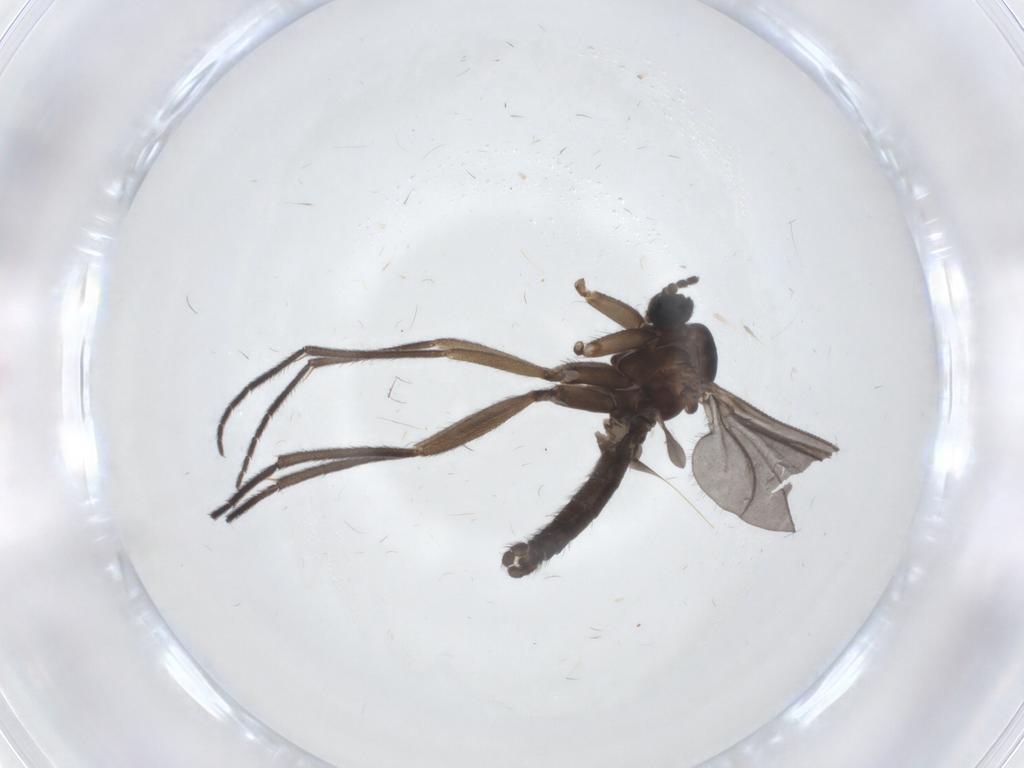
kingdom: Animalia
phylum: Arthropoda
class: Insecta
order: Diptera
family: Sciaridae
